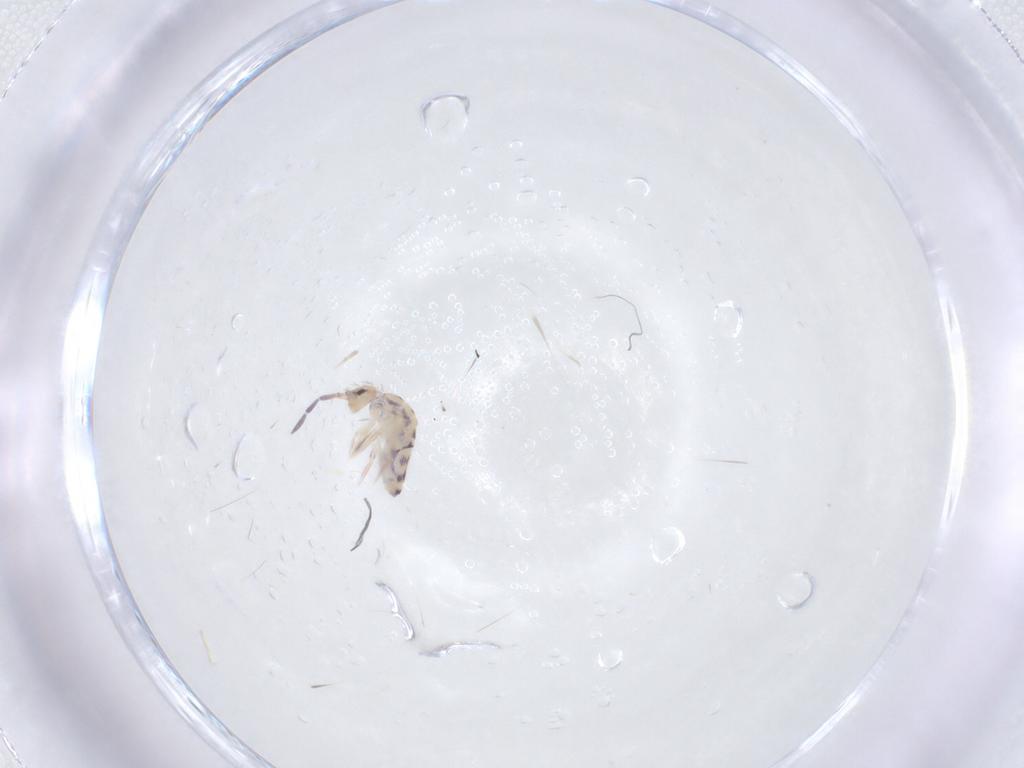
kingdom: Animalia
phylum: Arthropoda
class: Collembola
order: Entomobryomorpha
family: Entomobryidae
